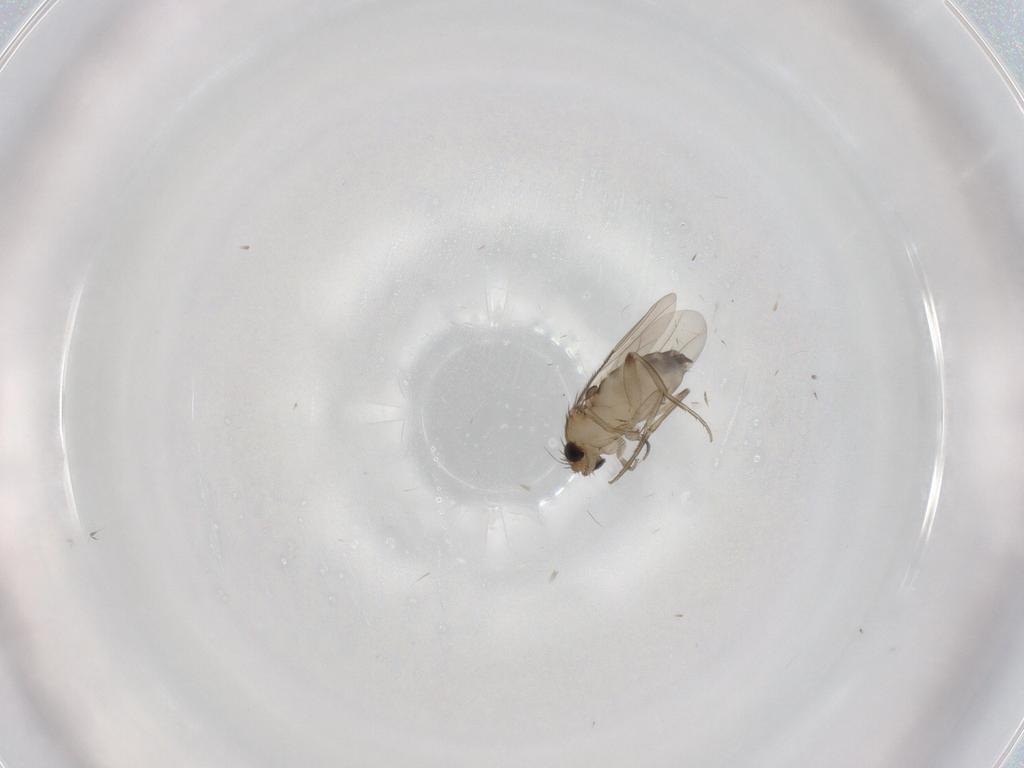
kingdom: Animalia
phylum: Arthropoda
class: Insecta
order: Diptera
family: Phoridae
